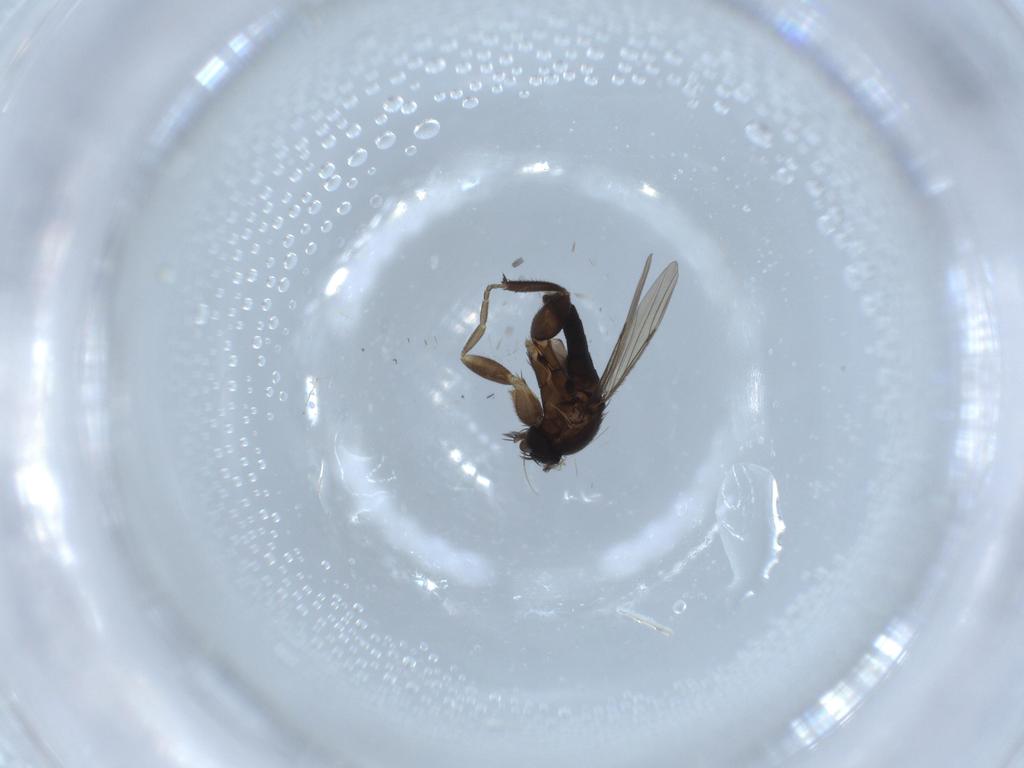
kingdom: Animalia
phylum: Arthropoda
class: Insecta
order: Diptera
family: Phoridae
